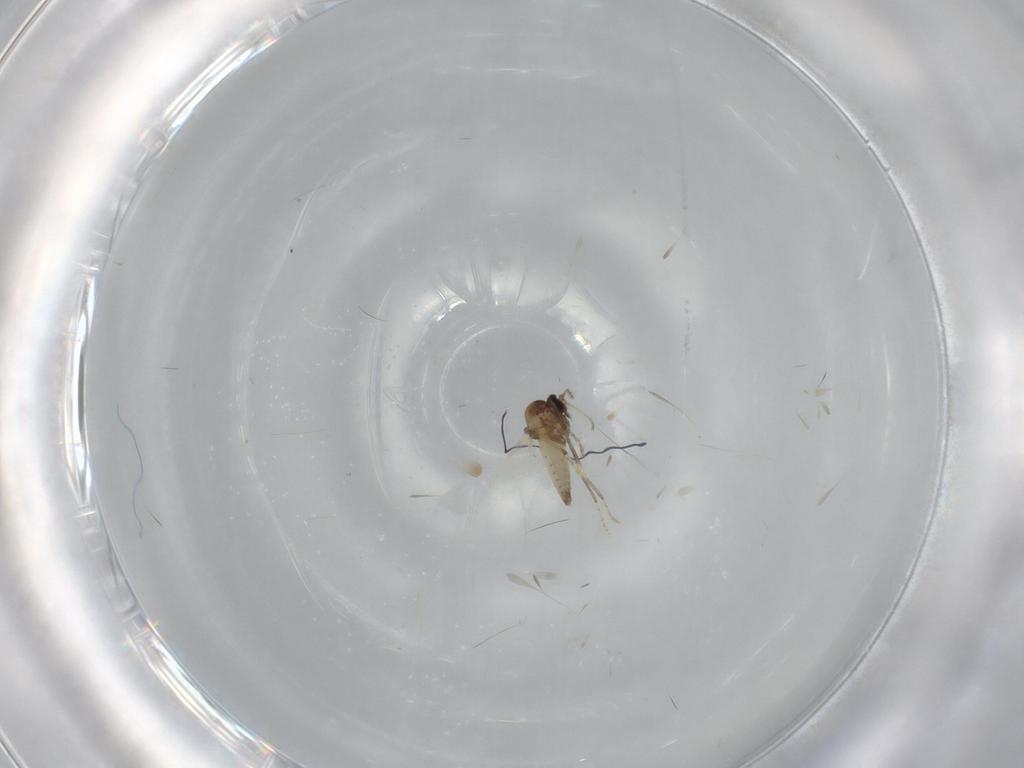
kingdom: Animalia
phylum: Arthropoda
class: Insecta
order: Diptera
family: Ceratopogonidae
